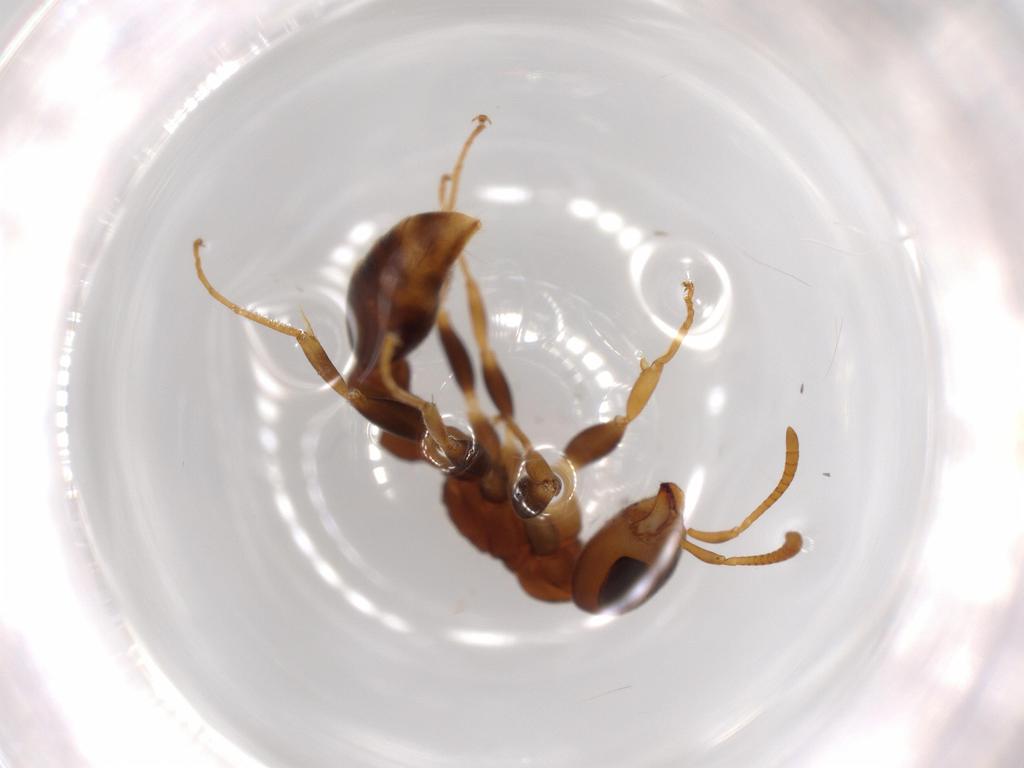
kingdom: Animalia
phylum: Arthropoda
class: Insecta
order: Hymenoptera
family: Formicidae
